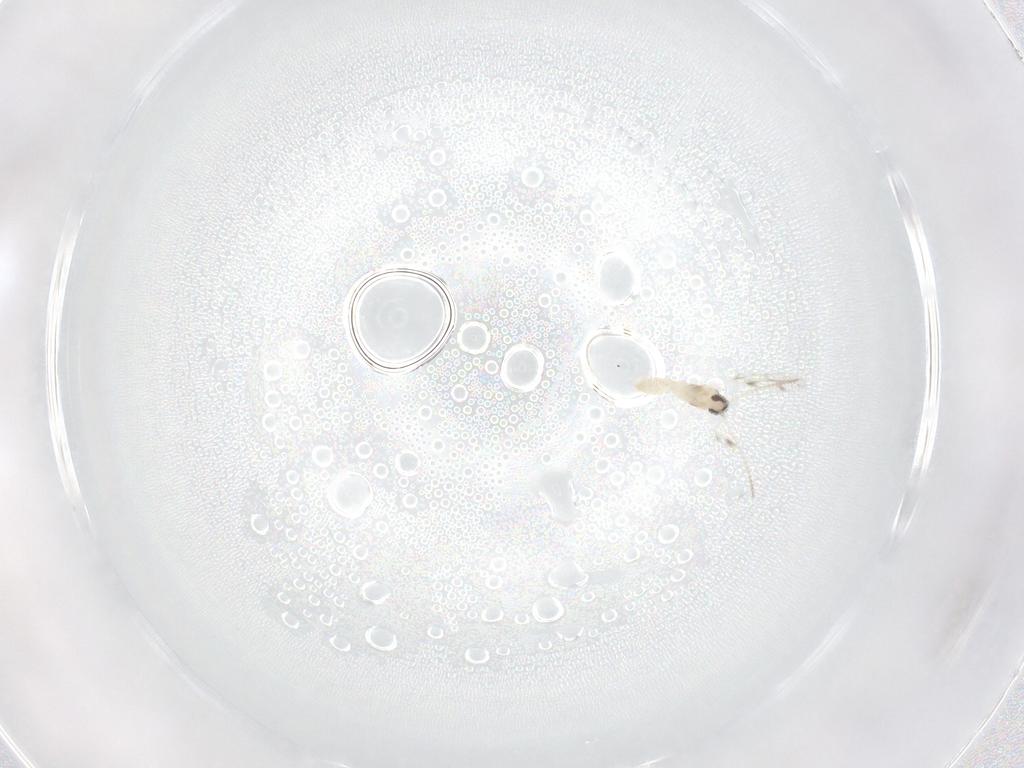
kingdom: Animalia
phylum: Arthropoda
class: Insecta
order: Diptera
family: Cecidomyiidae
